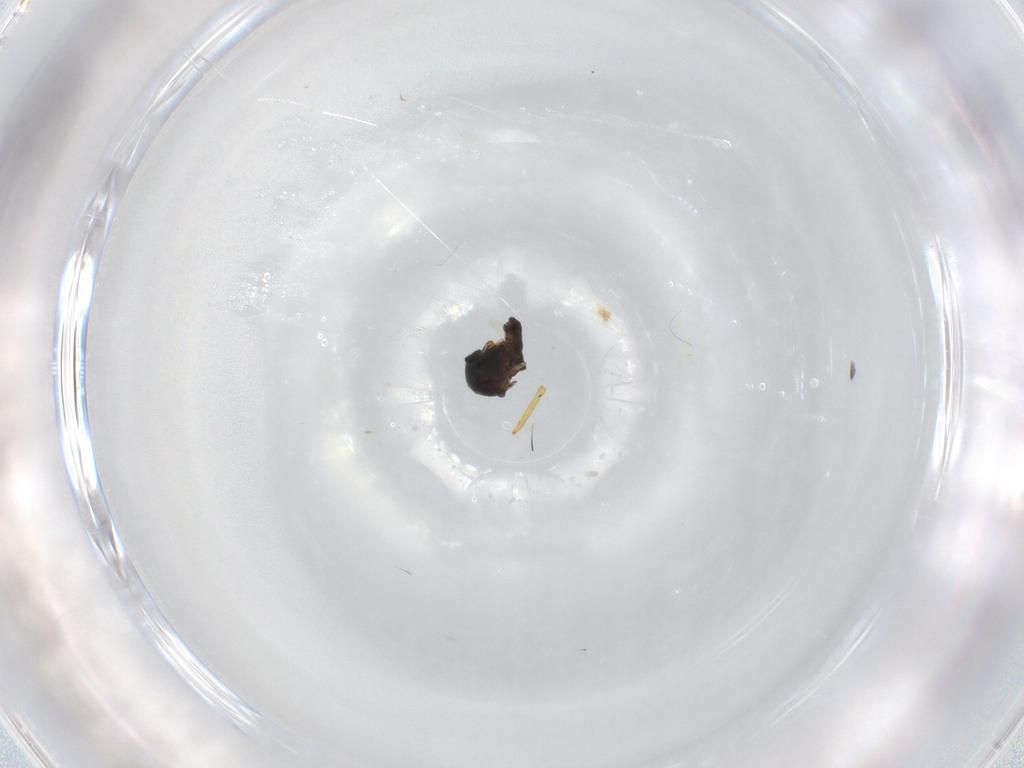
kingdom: Animalia
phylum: Arthropoda
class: Insecta
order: Diptera
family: Ceratopogonidae
